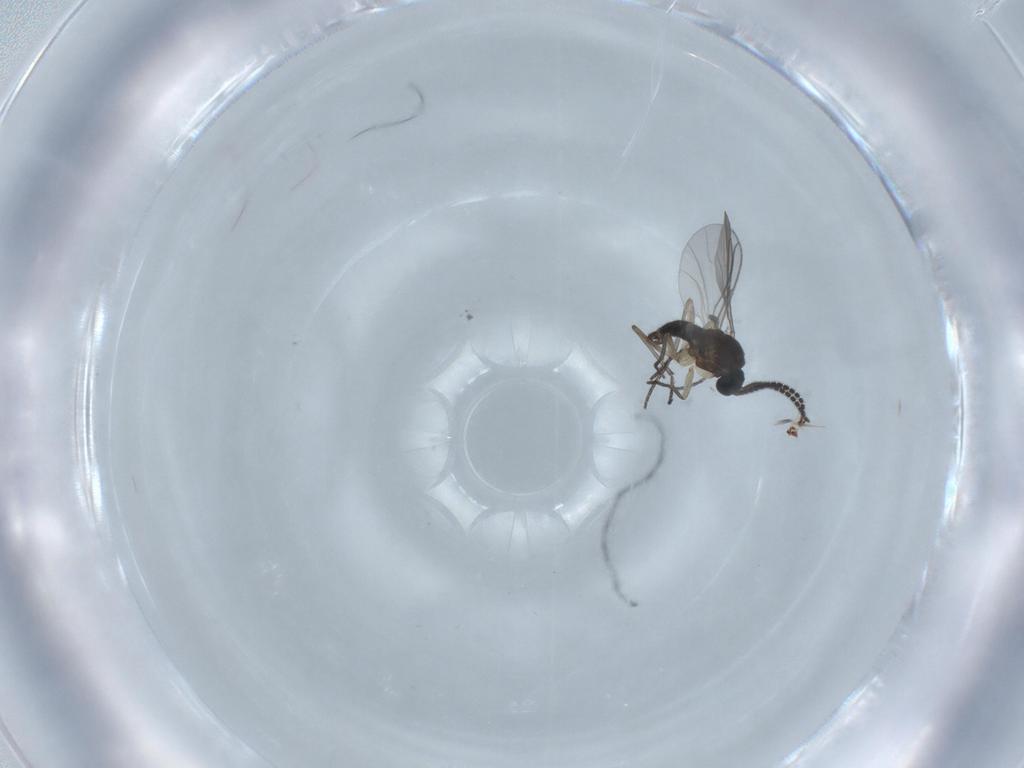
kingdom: Animalia
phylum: Arthropoda
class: Insecta
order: Diptera
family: Sciaridae
